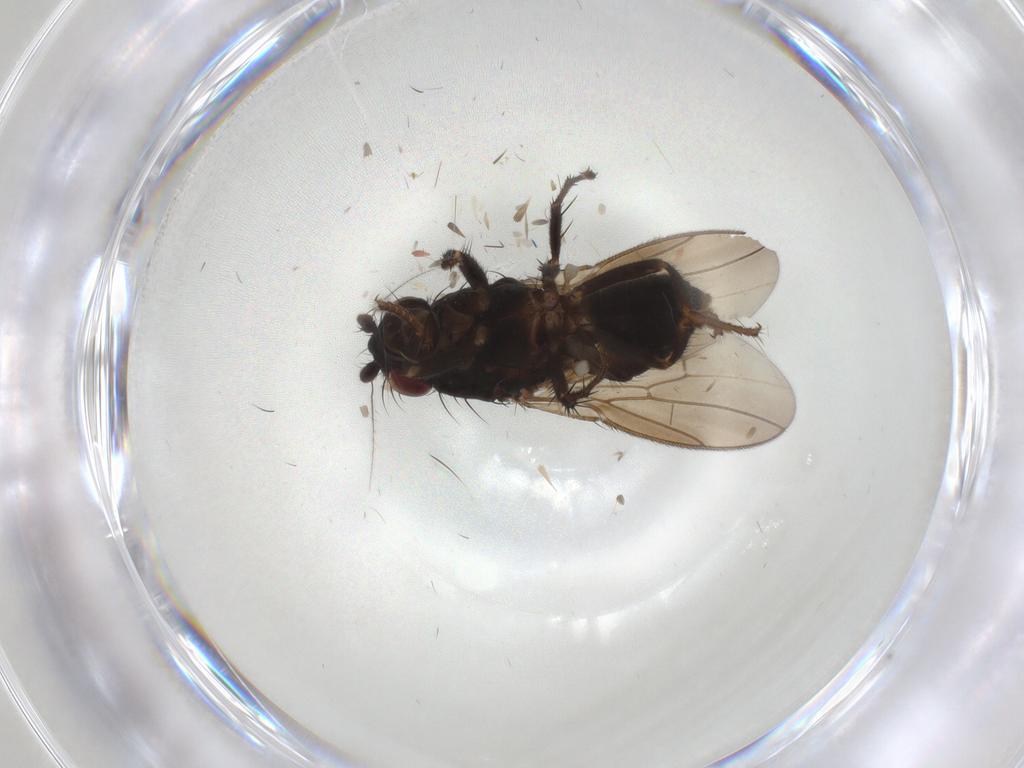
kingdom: Animalia
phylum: Arthropoda
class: Insecta
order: Diptera
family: Sphaeroceridae
